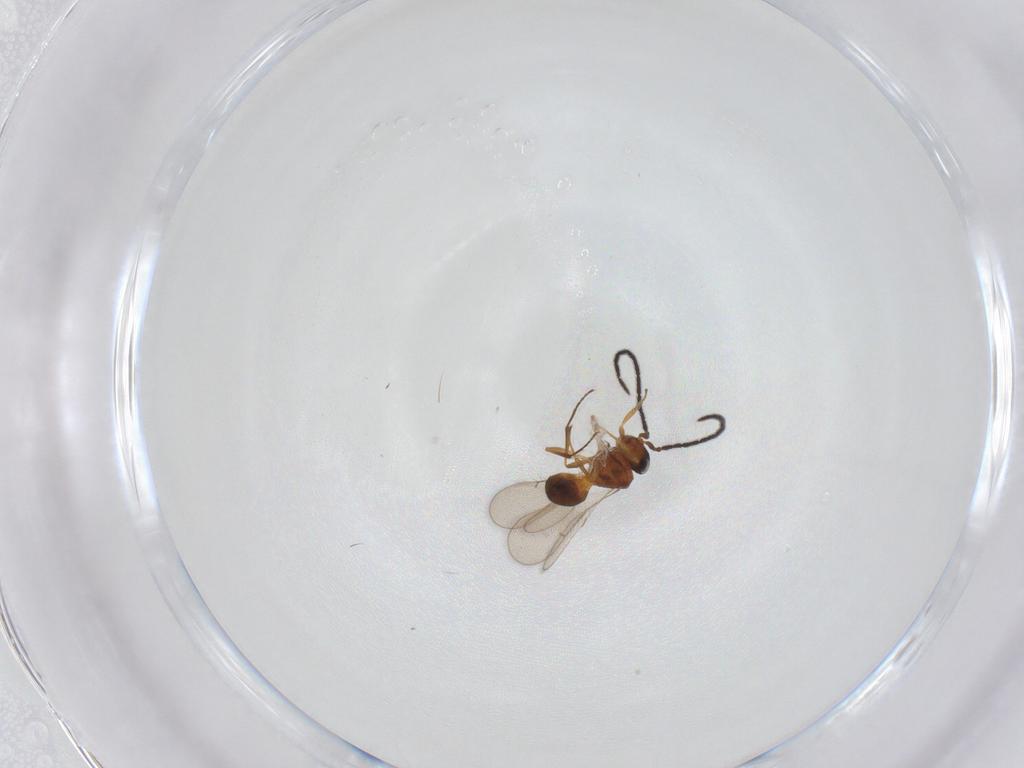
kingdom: Animalia
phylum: Arthropoda
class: Insecta
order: Hymenoptera
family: Scelionidae
